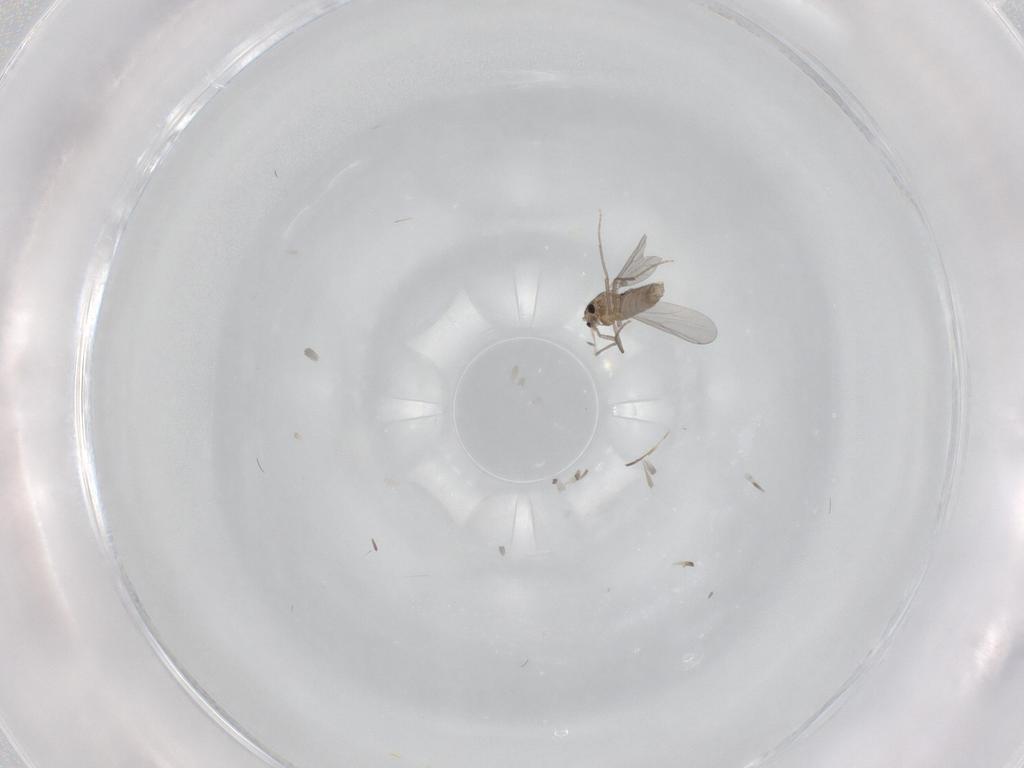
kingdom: Animalia
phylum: Arthropoda
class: Insecta
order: Diptera
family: Chironomidae
